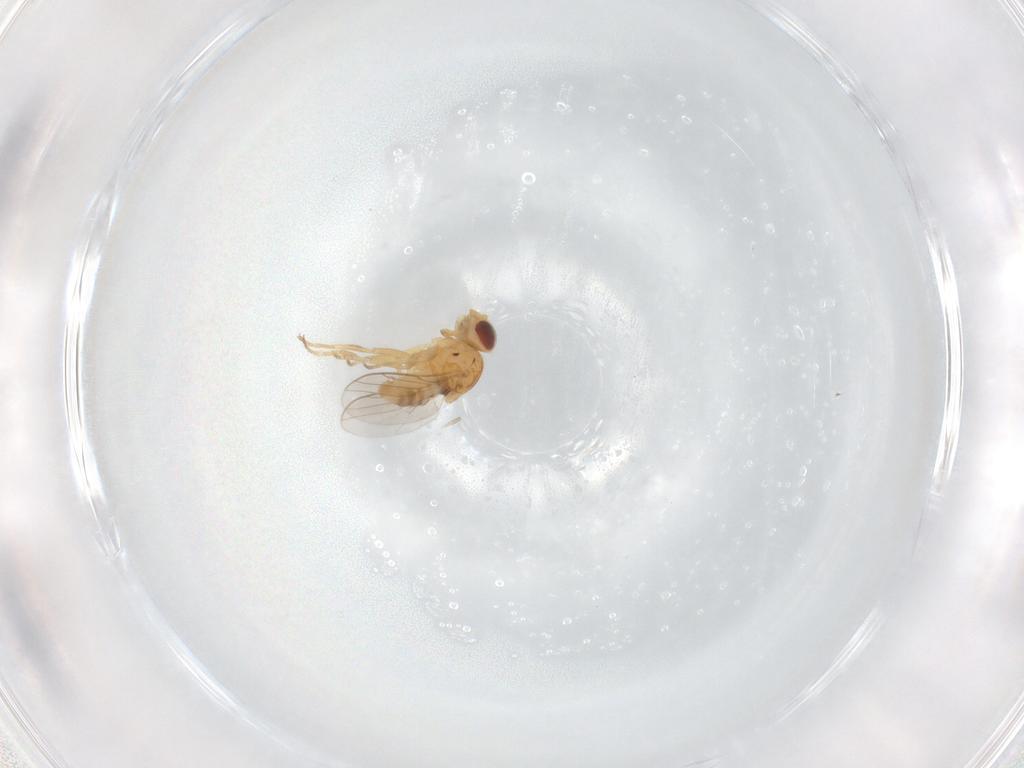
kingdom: Animalia
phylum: Arthropoda
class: Insecta
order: Diptera
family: Chloropidae
